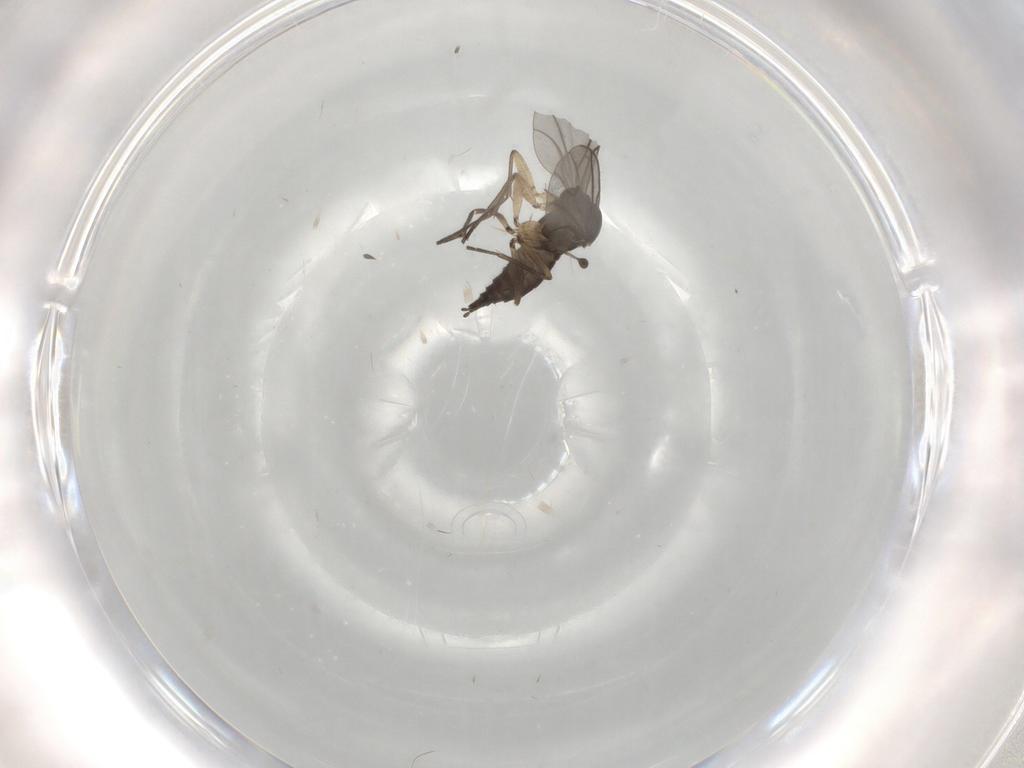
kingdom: Animalia
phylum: Arthropoda
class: Insecta
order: Diptera
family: Sciaridae
